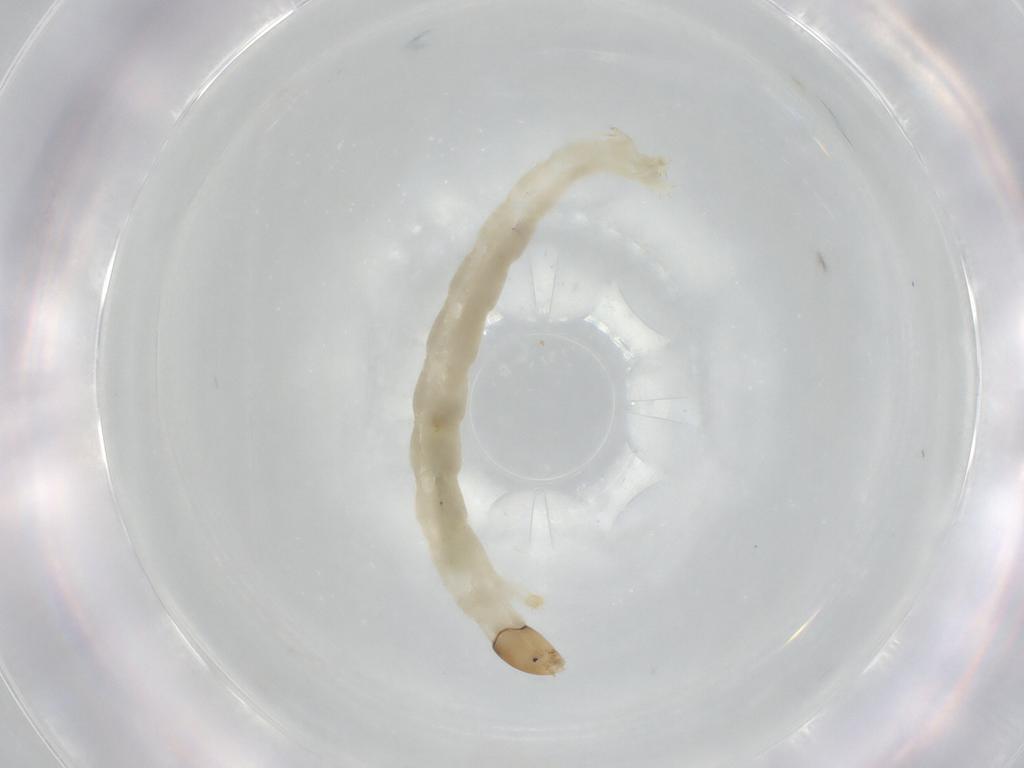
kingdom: Animalia
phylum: Arthropoda
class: Insecta
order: Diptera
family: Chironomidae
